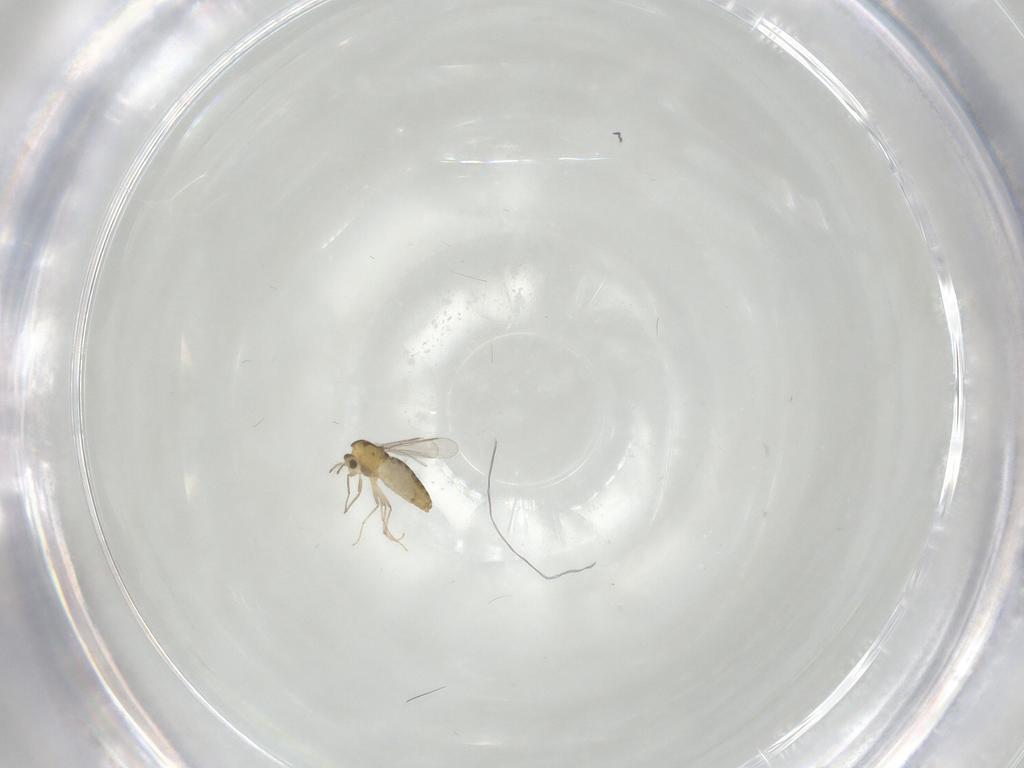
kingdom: Animalia
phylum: Arthropoda
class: Insecta
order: Diptera
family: Chironomidae
